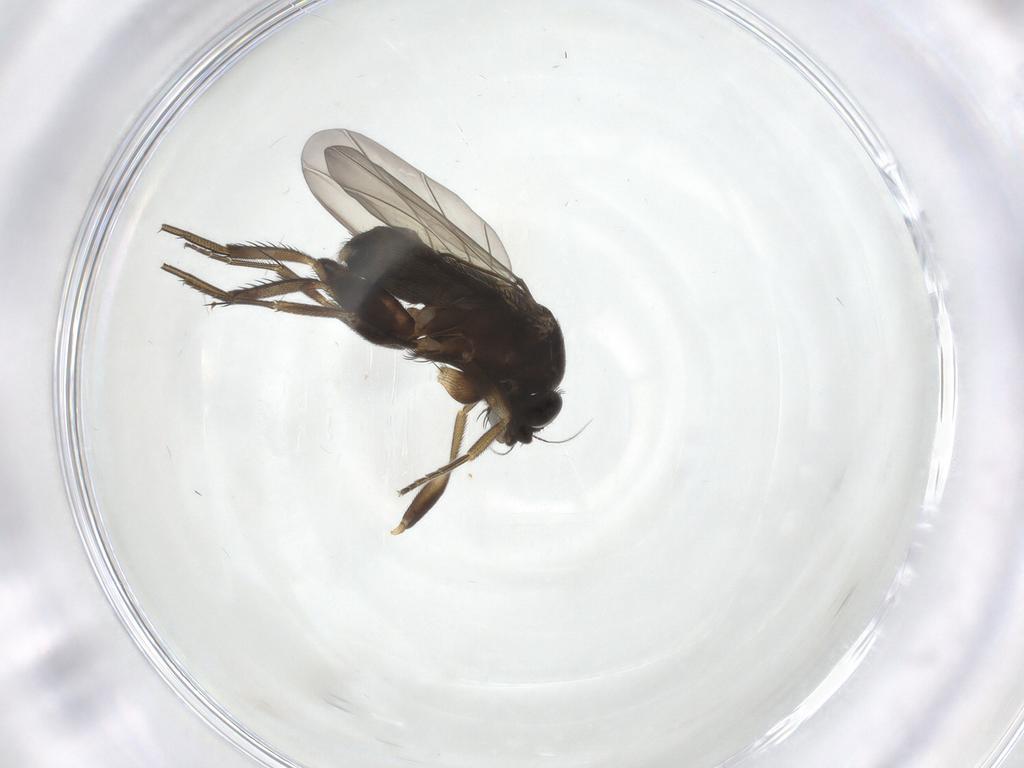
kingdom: Animalia
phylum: Arthropoda
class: Insecta
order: Diptera
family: Phoridae
